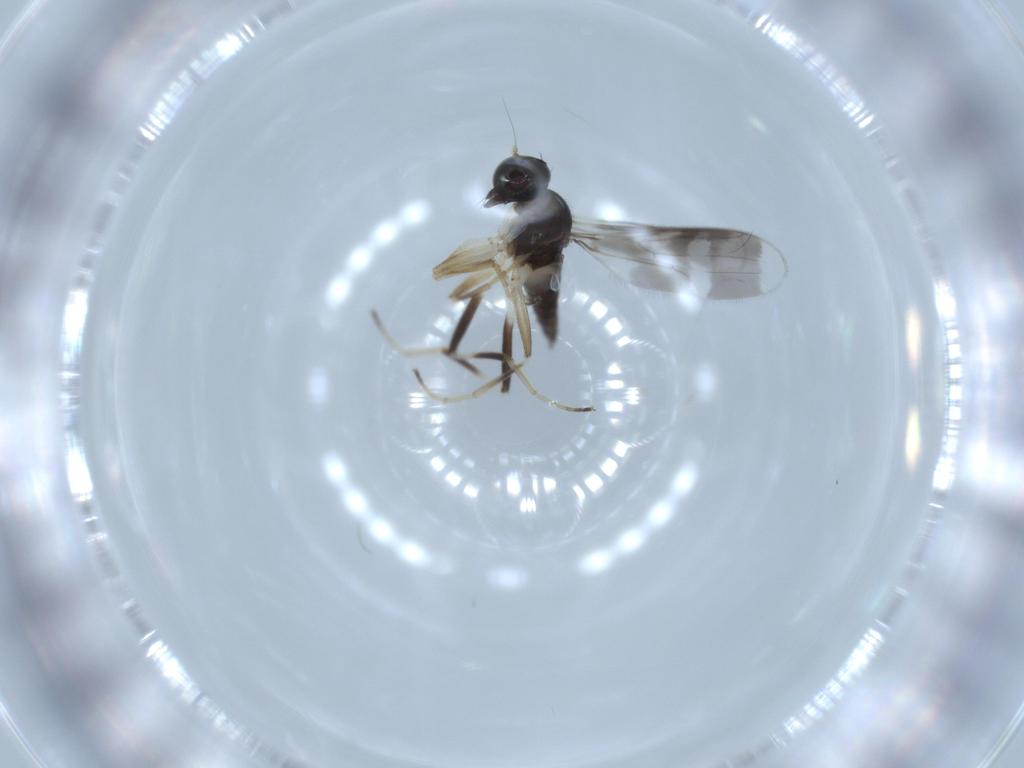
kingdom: Animalia
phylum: Arthropoda
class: Insecta
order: Diptera
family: Hybotidae
